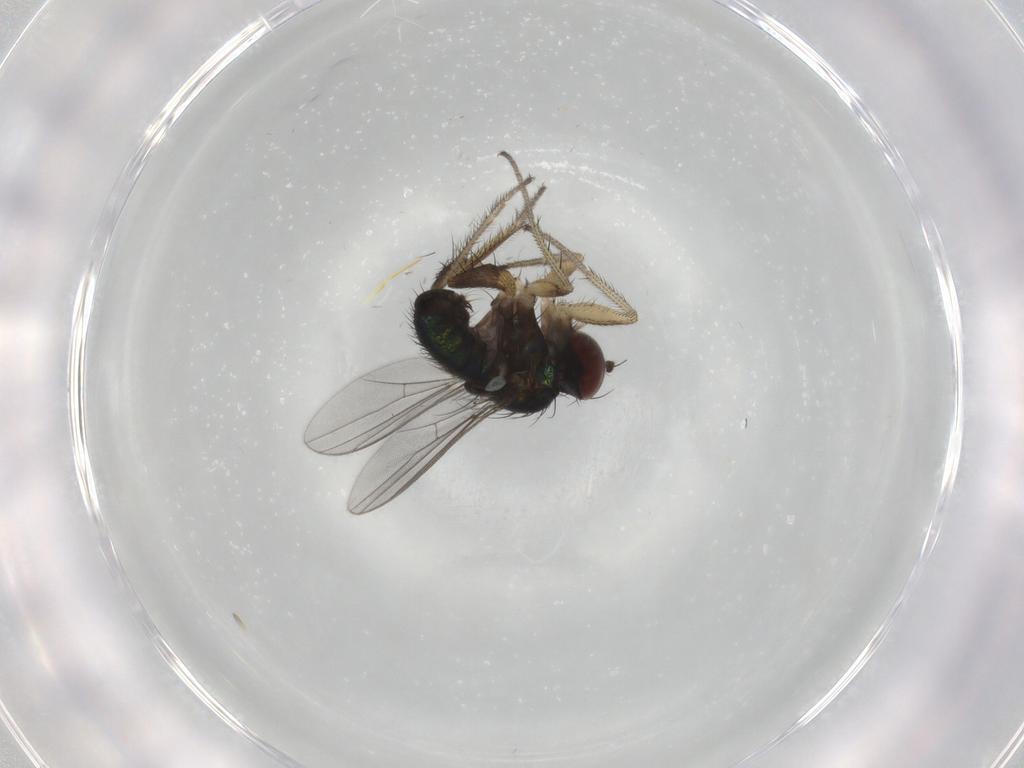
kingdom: Animalia
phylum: Arthropoda
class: Insecta
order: Diptera
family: Dolichopodidae
